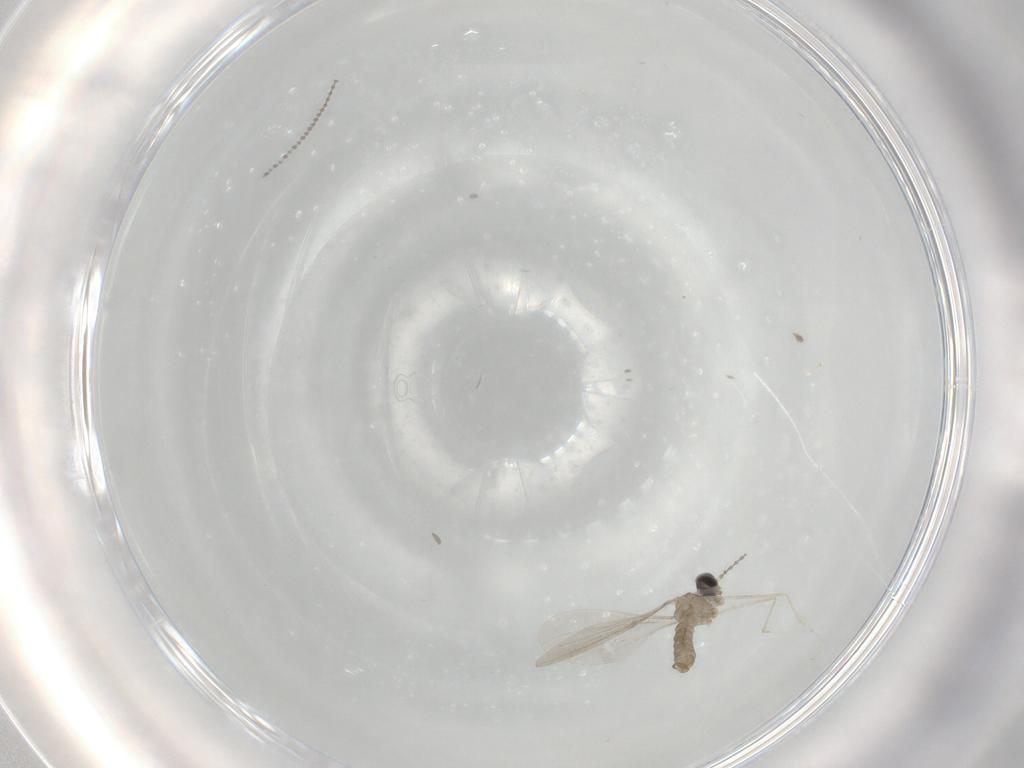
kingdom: Animalia
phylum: Arthropoda
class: Insecta
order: Diptera
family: Cecidomyiidae
